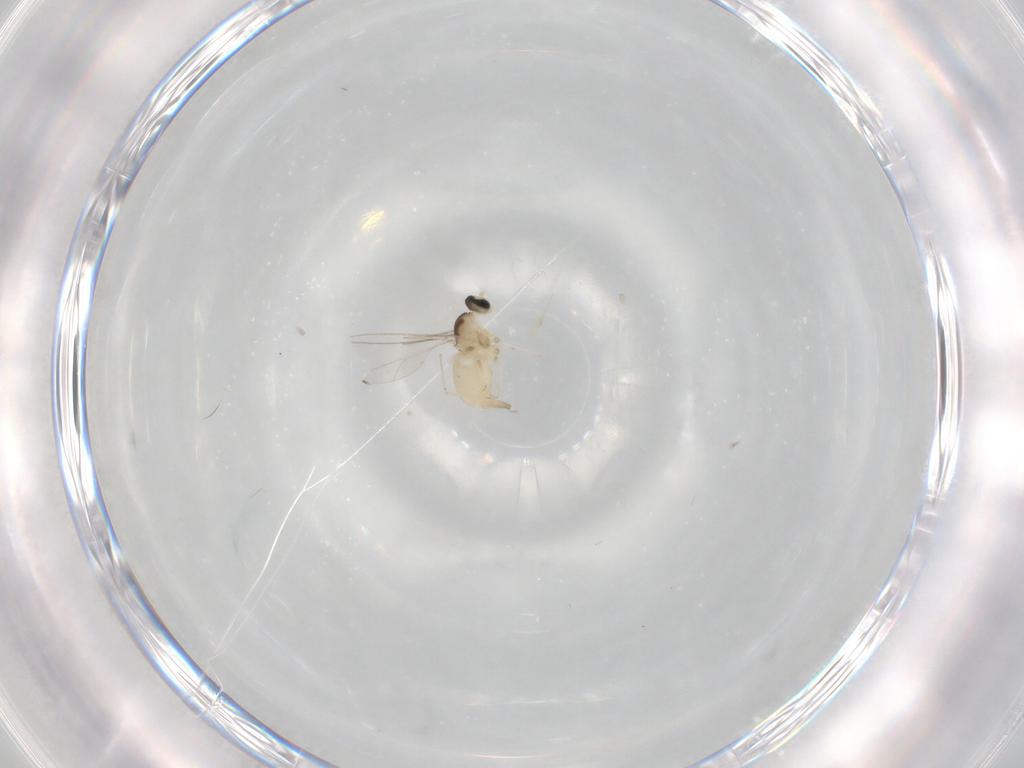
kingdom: Animalia
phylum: Arthropoda
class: Insecta
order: Diptera
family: Cecidomyiidae
